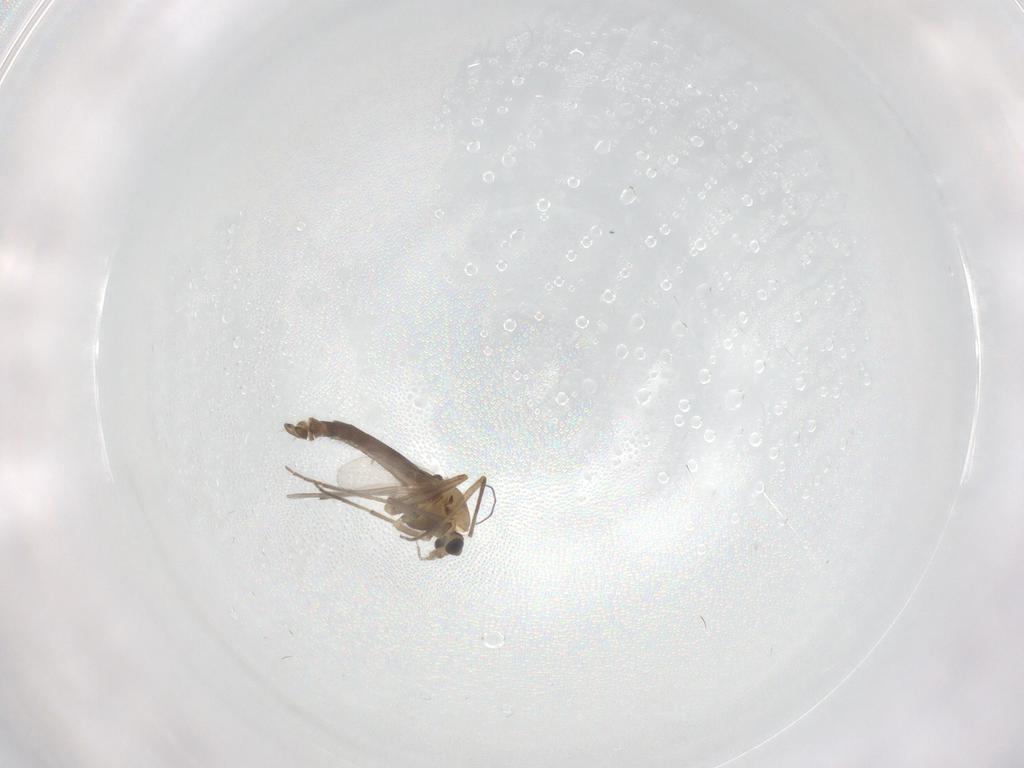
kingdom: Animalia
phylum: Arthropoda
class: Insecta
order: Diptera
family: Chironomidae
